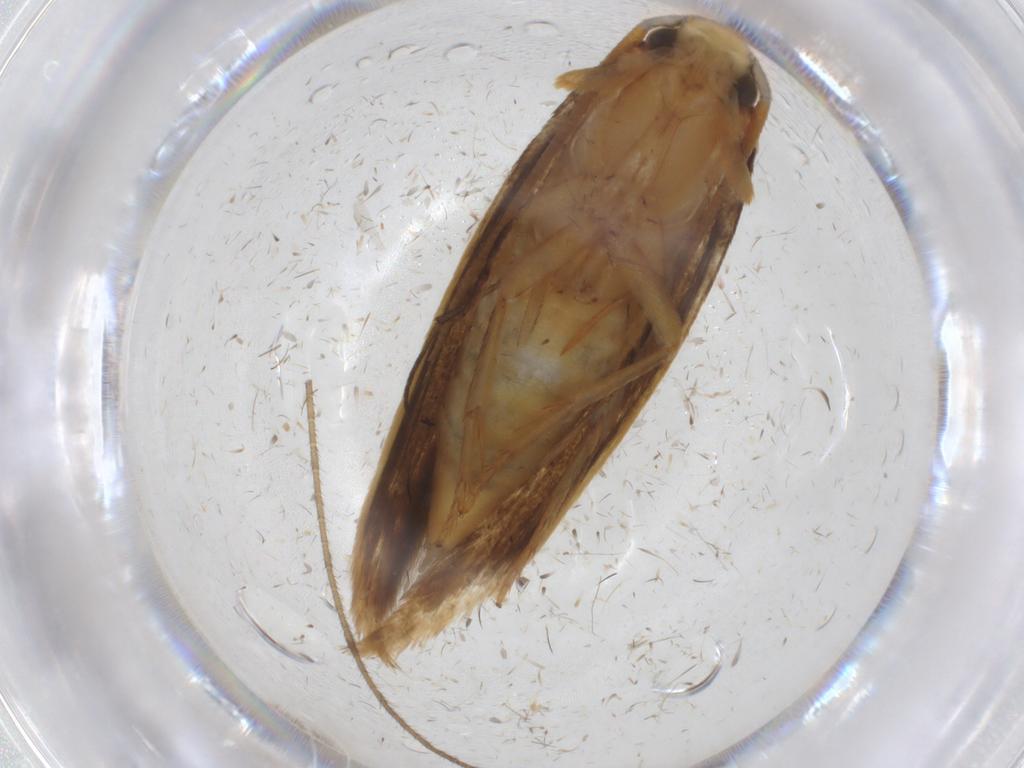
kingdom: Animalia
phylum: Arthropoda
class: Insecta
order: Lepidoptera
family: Tineidae
